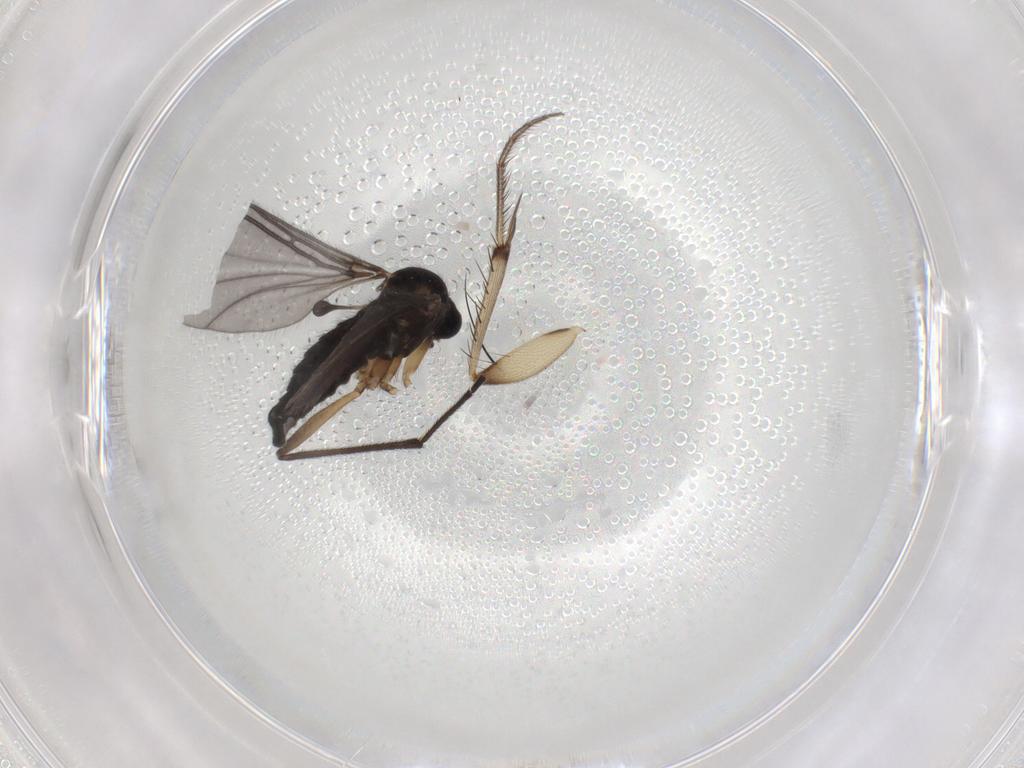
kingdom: Animalia
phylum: Arthropoda
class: Insecta
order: Diptera
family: Sciaridae
